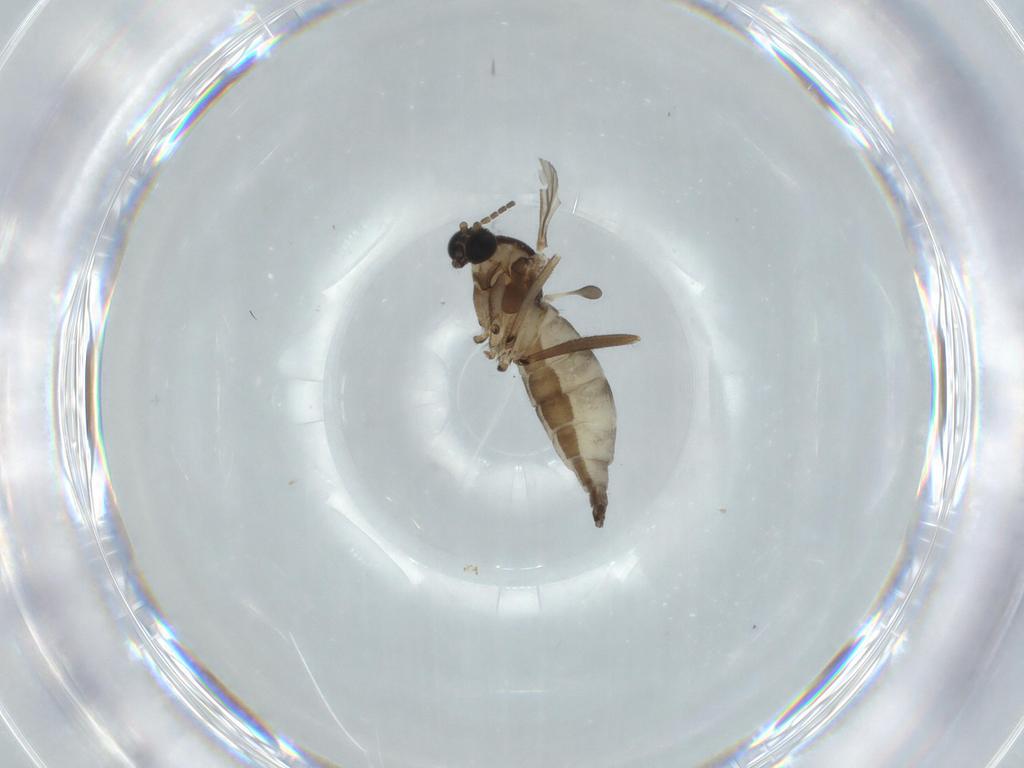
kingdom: Animalia
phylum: Arthropoda
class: Insecta
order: Diptera
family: Sciaridae
